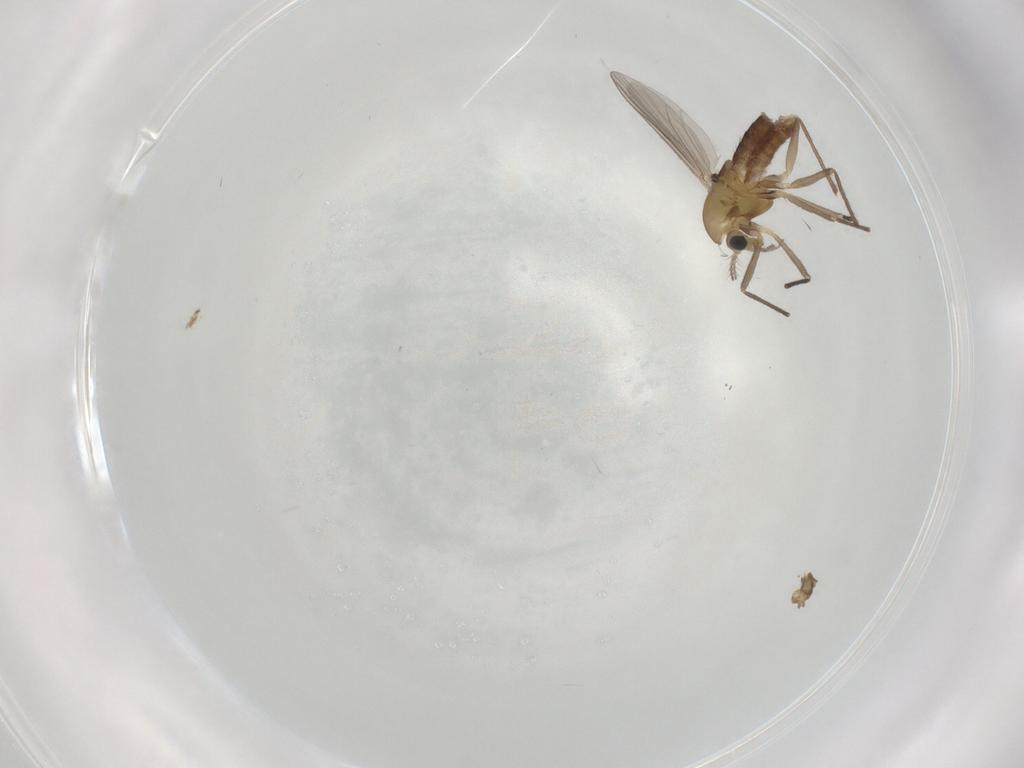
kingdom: Animalia
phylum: Arthropoda
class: Insecta
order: Diptera
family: Chironomidae
